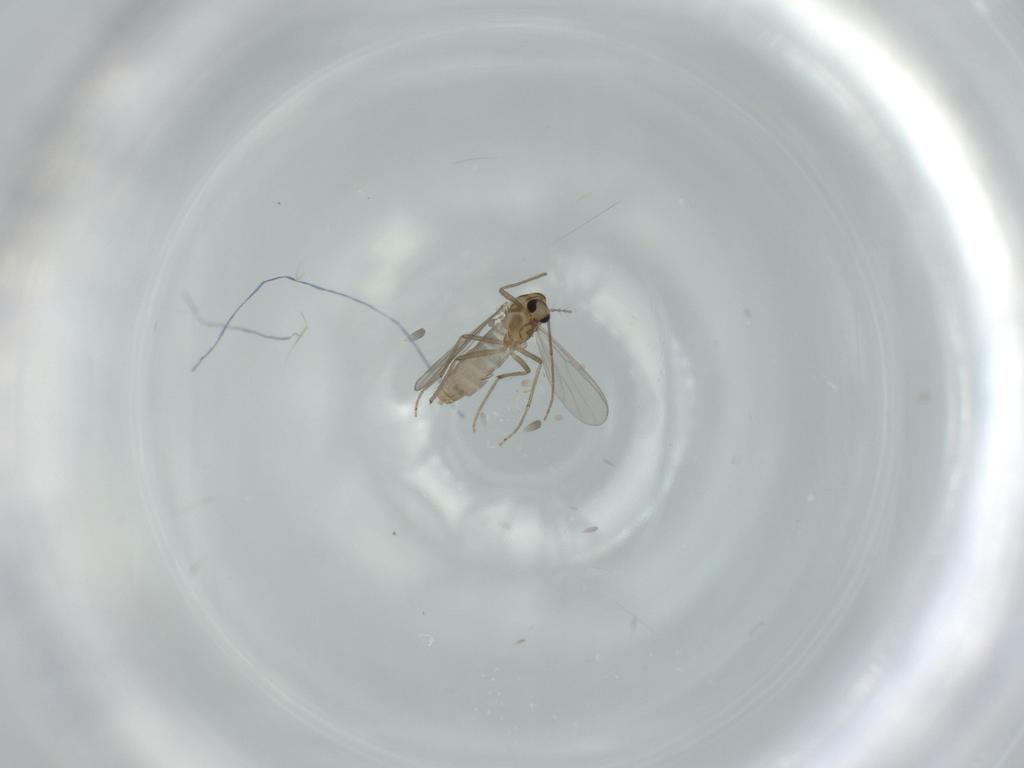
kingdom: Animalia
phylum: Arthropoda
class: Insecta
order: Diptera
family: Chironomidae
